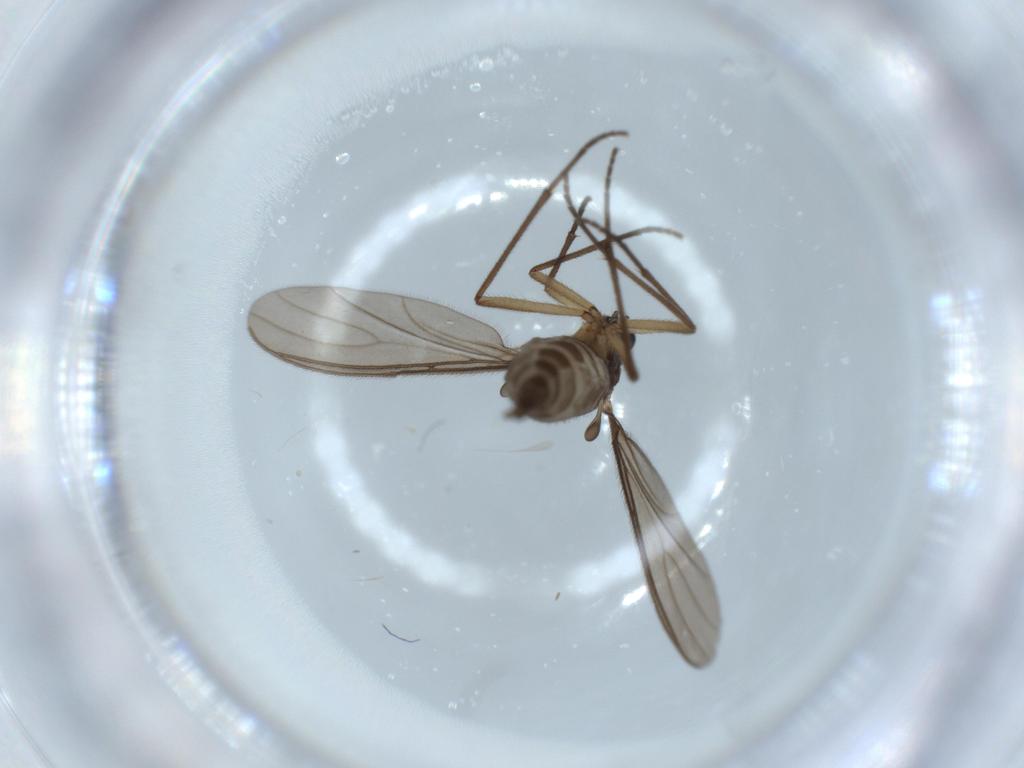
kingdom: Animalia
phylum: Arthropoda
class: Insecta
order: Diptera
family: Sciaridae
